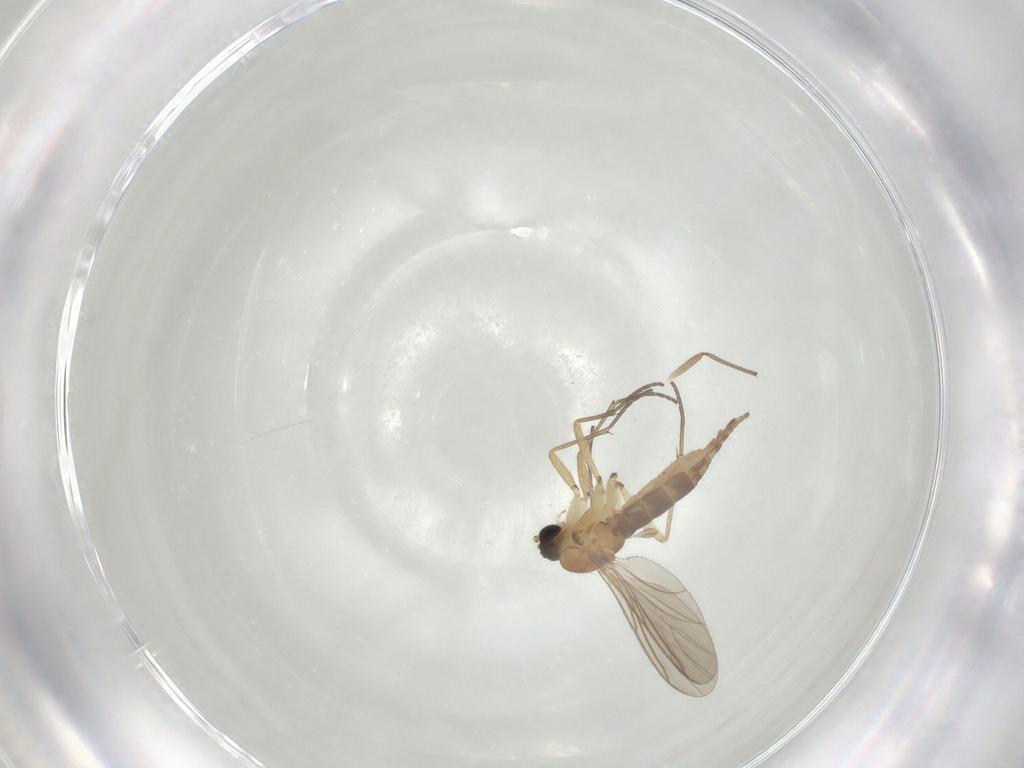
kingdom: Animalia
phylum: Arthropoda
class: Insecta
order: Diptera
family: Sciaridae
